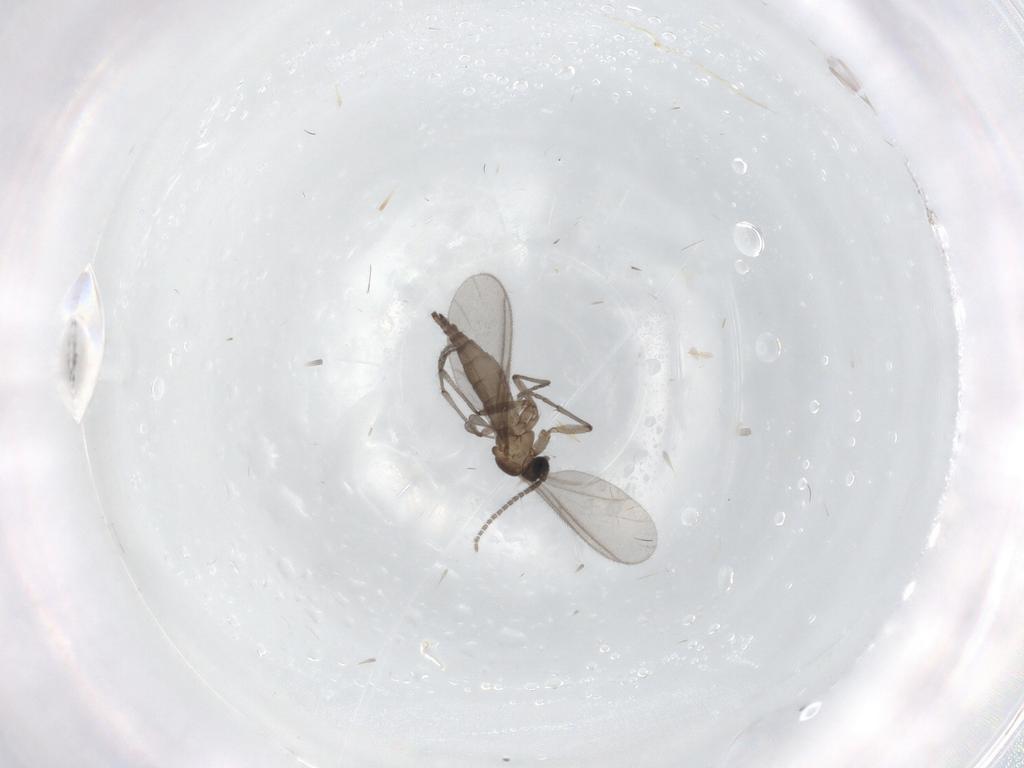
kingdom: Animalia
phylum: Arthropoda
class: Insecta
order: Diptera
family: Sciaridae
